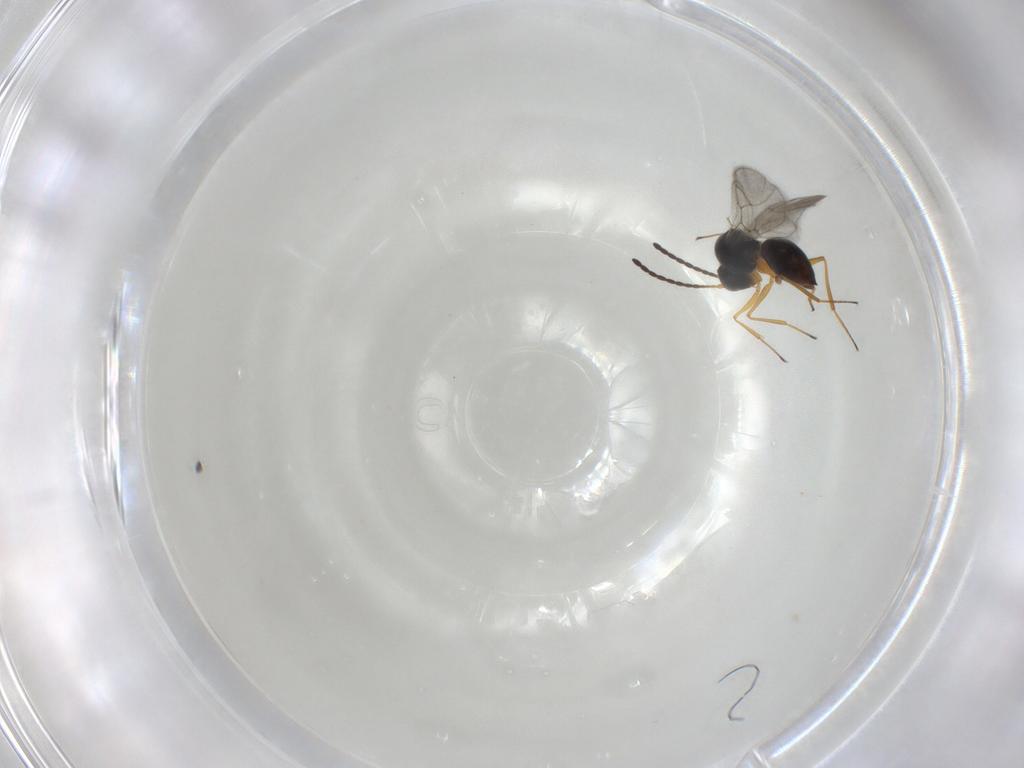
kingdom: Animalia
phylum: Arthropoda
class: Insecta
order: Hymenoptera
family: Figitidae
